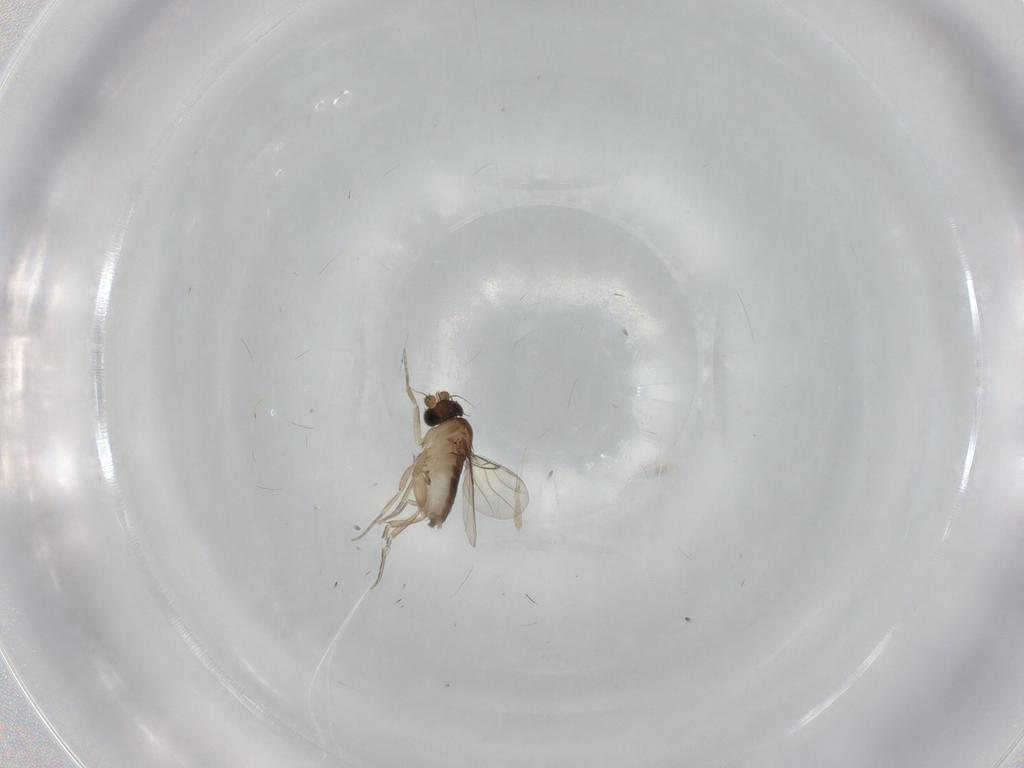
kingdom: Animalia
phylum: Arthropoda
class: Insecta
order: Diptera
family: Phoridae
